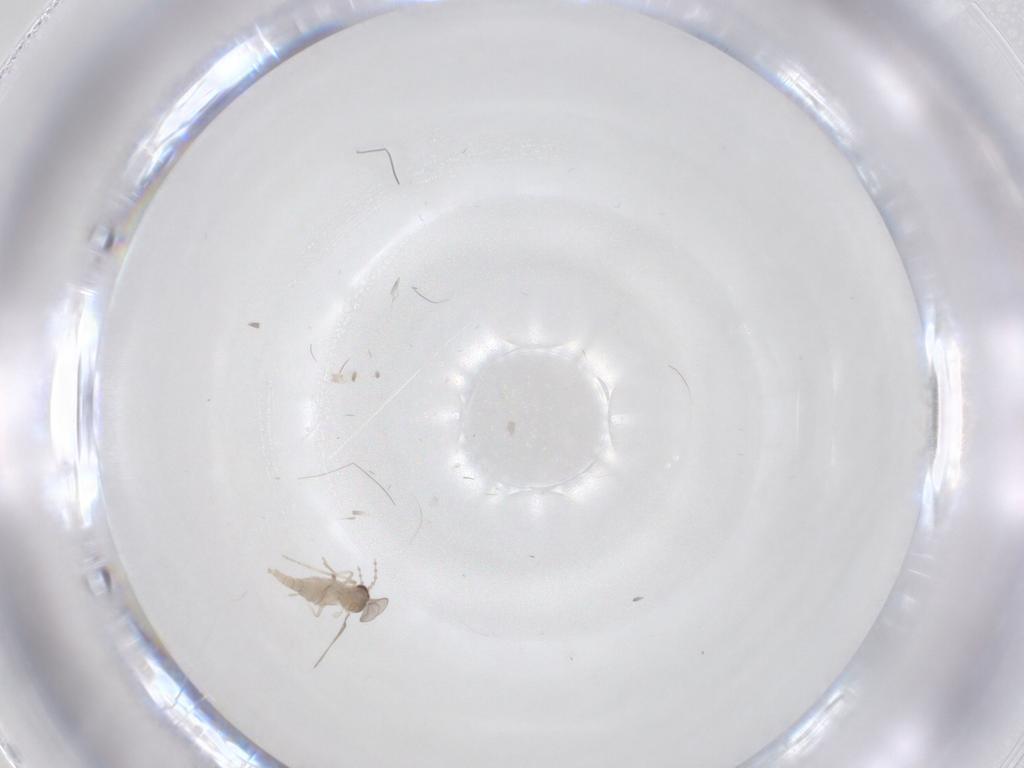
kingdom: Animalia
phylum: Arthropoda
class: Insecta
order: Diptera
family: Cecidomyiidae
